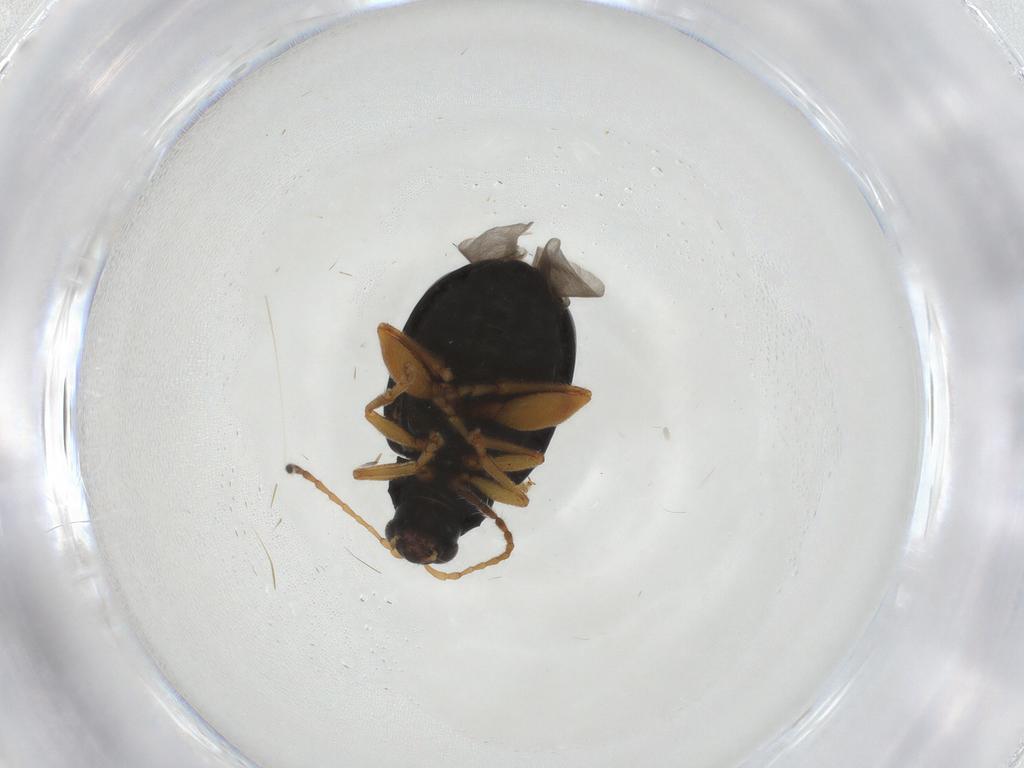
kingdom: Animalia
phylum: Arthropoda
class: Insecta
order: Coleoptera
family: Chrysomelidae
